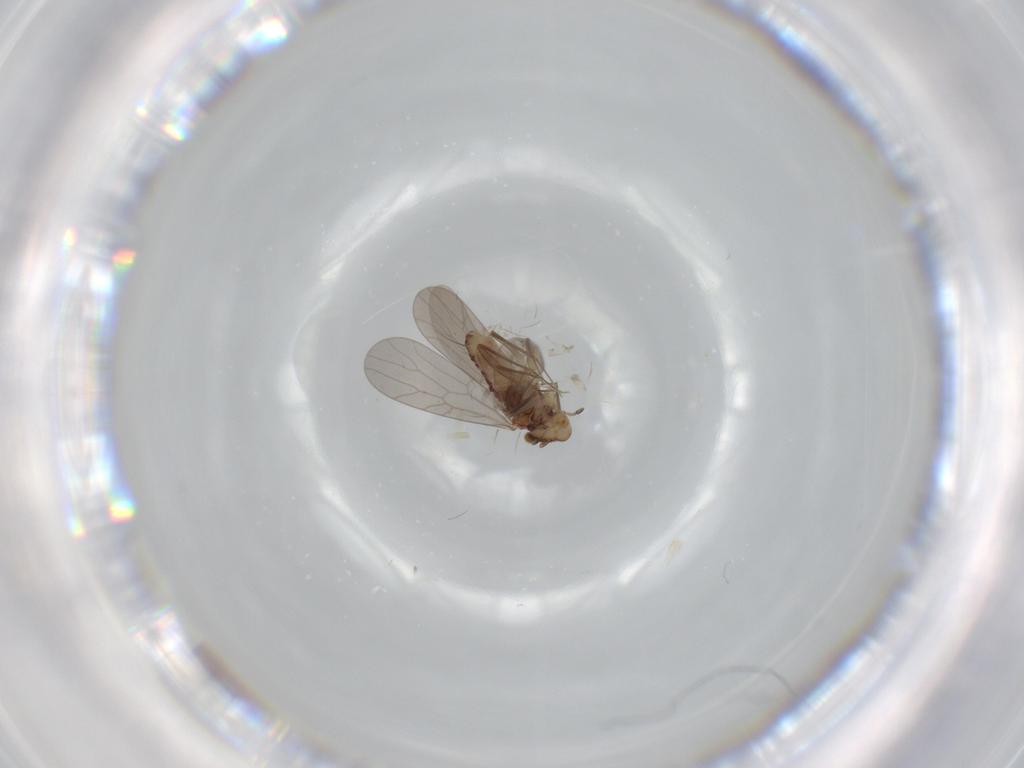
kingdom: Animalia
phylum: Arthropoda
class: Insecta
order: Psocodea
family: Lepidopsocidae
